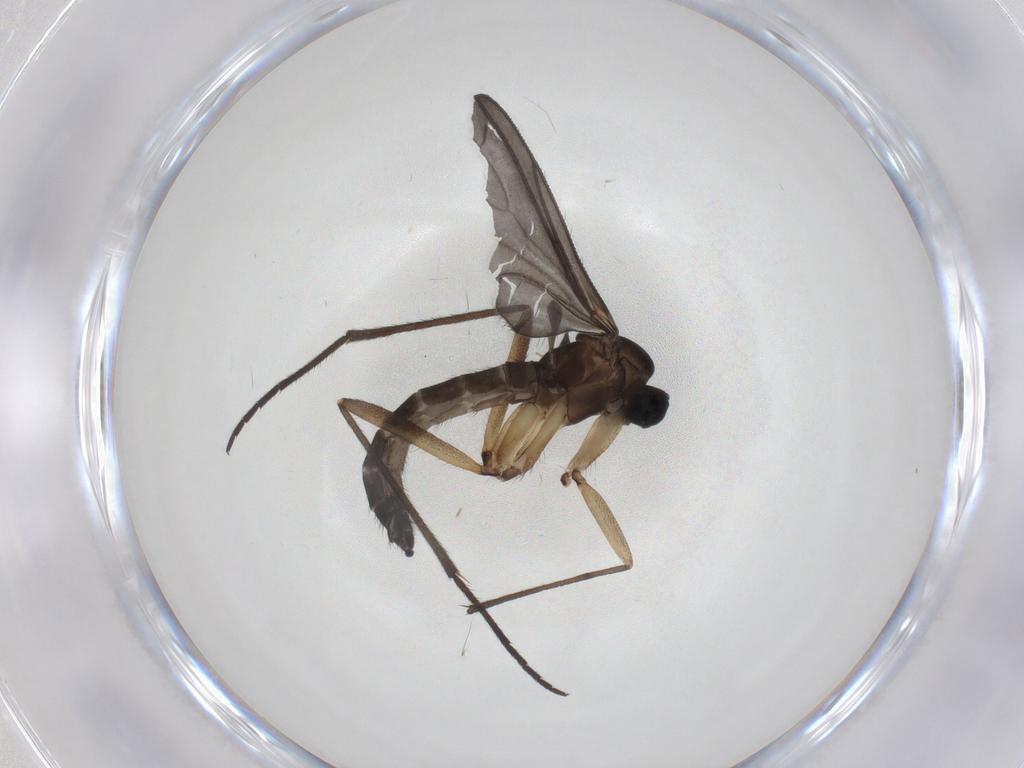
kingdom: Animalia
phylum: Arthropoda
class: Insecta
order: Diptera
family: Sciaridae
